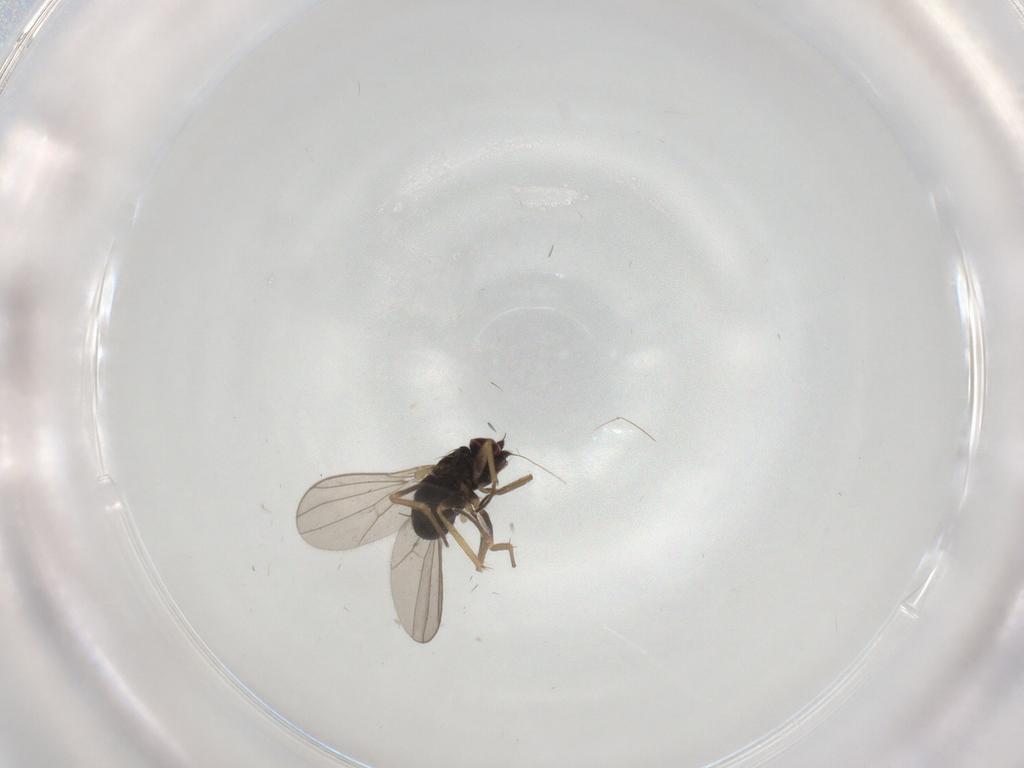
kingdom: Animalia
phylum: Arthropoda
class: Insecta
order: Diptera
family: Dolichopodidae
